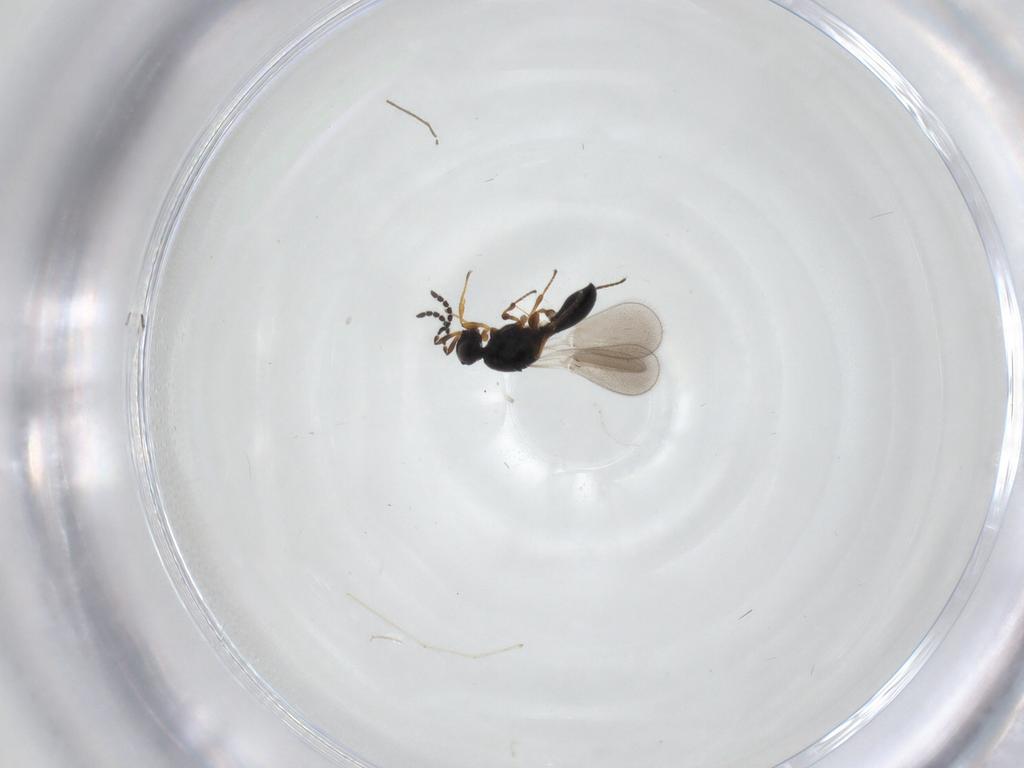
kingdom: Animalia
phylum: Arthropoda
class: Insecta
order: Hymenoptera
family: Platygastridae
